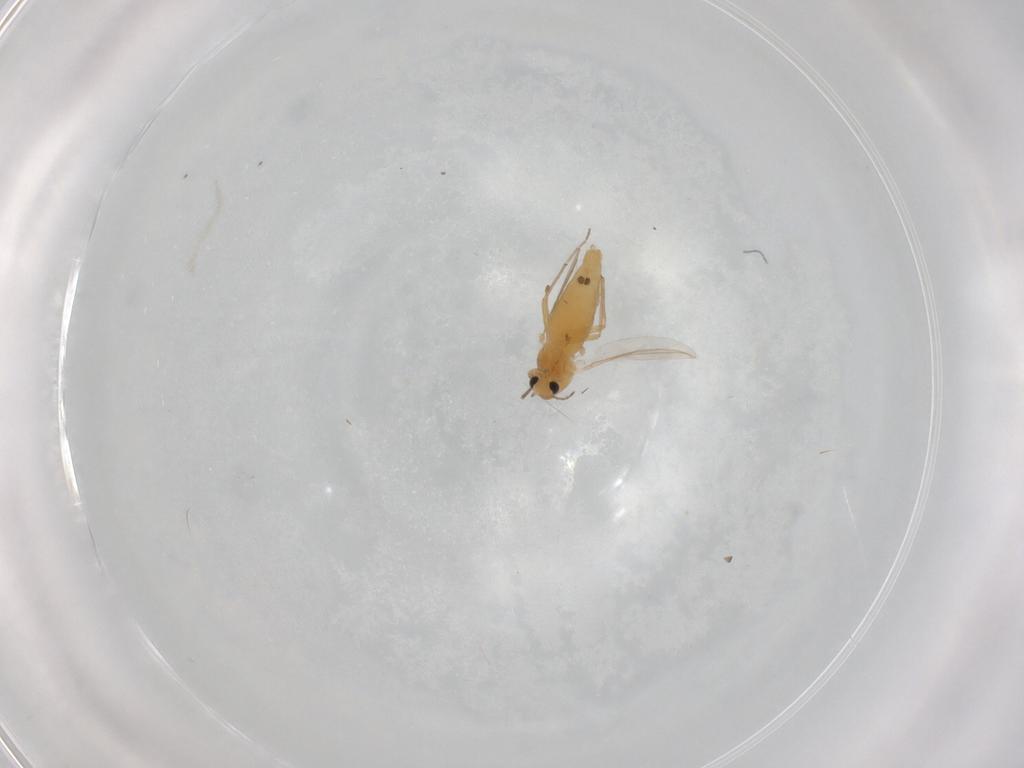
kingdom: Animalia
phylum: Arthropoda
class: Insecta
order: Diptera
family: Chironomidae
